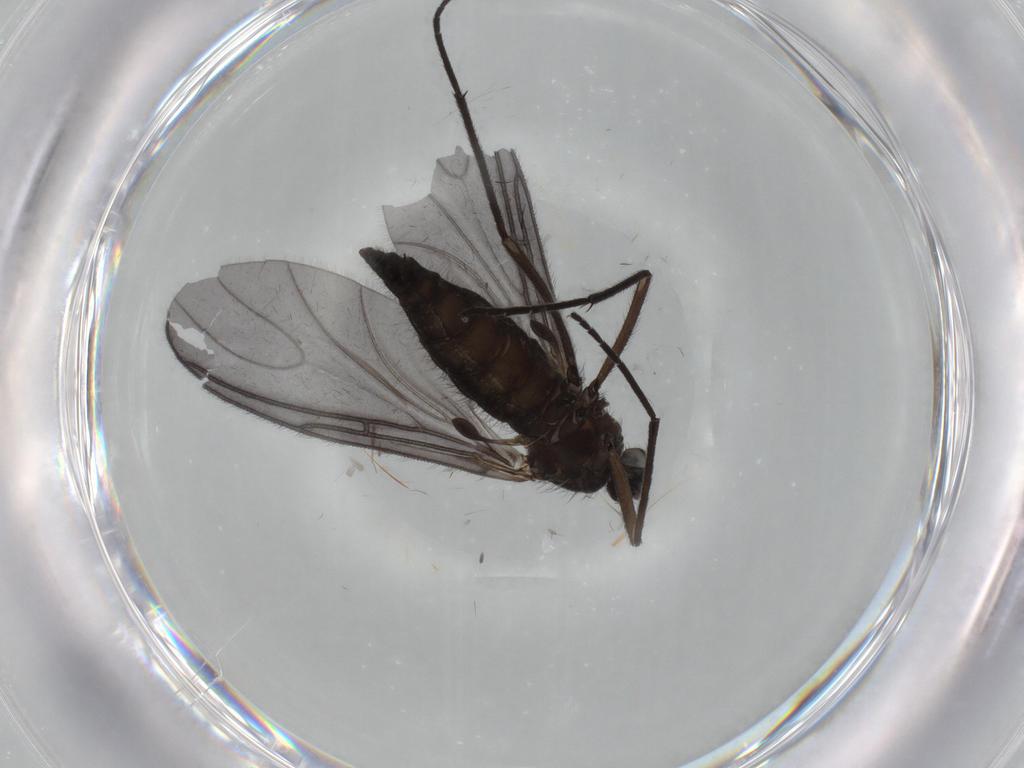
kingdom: Animalia
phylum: Arthropoda
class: Insecta
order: Diptera
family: Sciaridae
